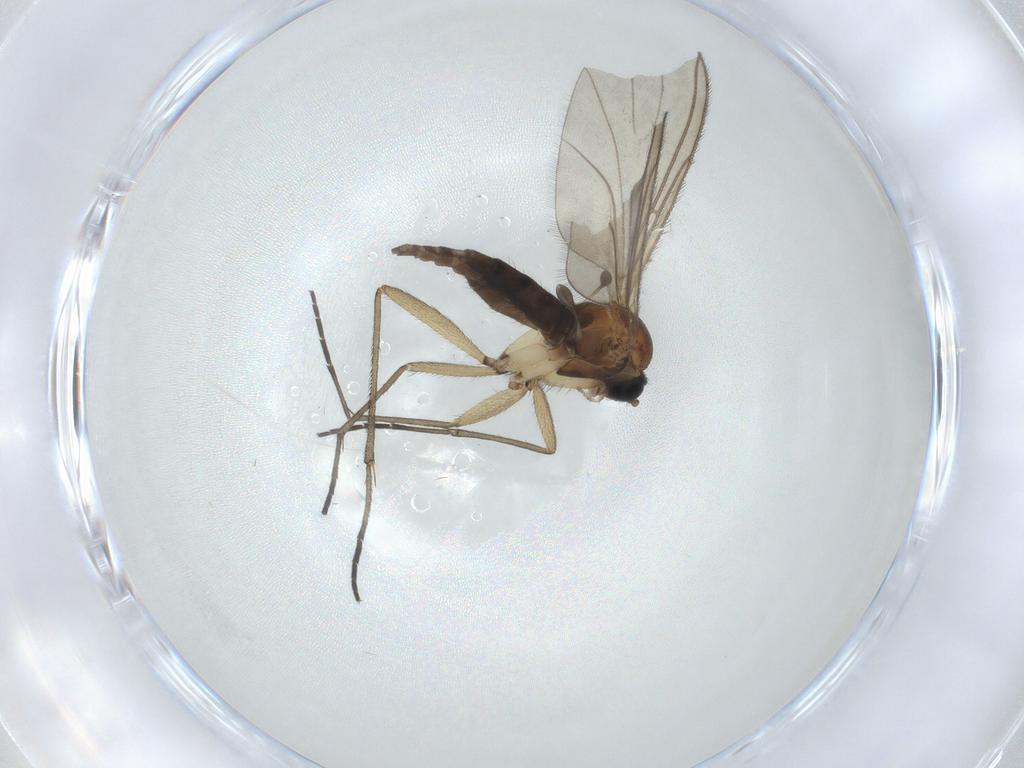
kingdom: Animalia
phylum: Arthropoda
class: Insecta
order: Diptera
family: Sciaridae
